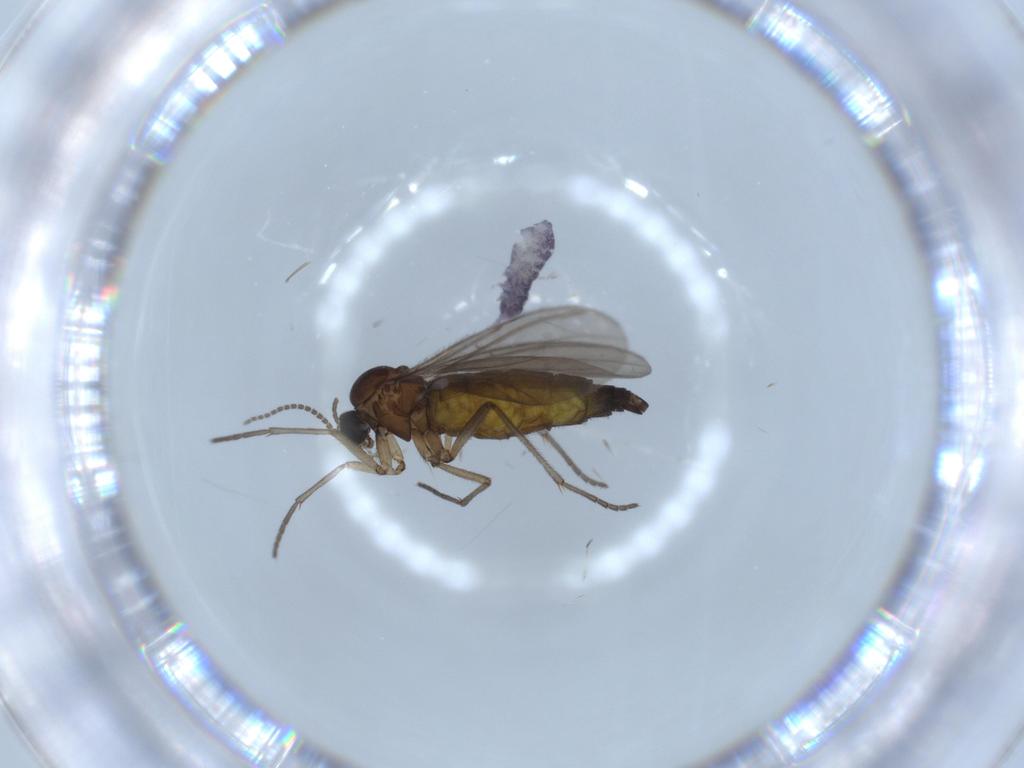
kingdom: Animalia
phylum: Arthropoda
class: Insecta
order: Diptera
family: Sciaridae
